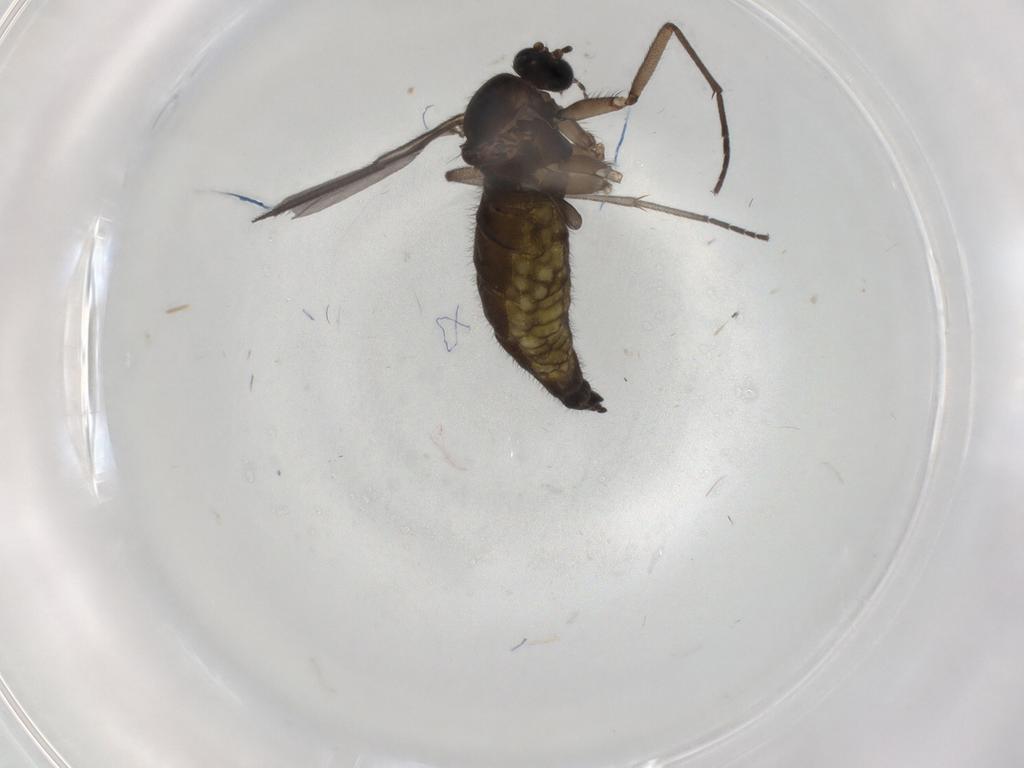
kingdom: Animalia
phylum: Arthropoda
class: Insecta
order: Diptera
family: Sciaridae
